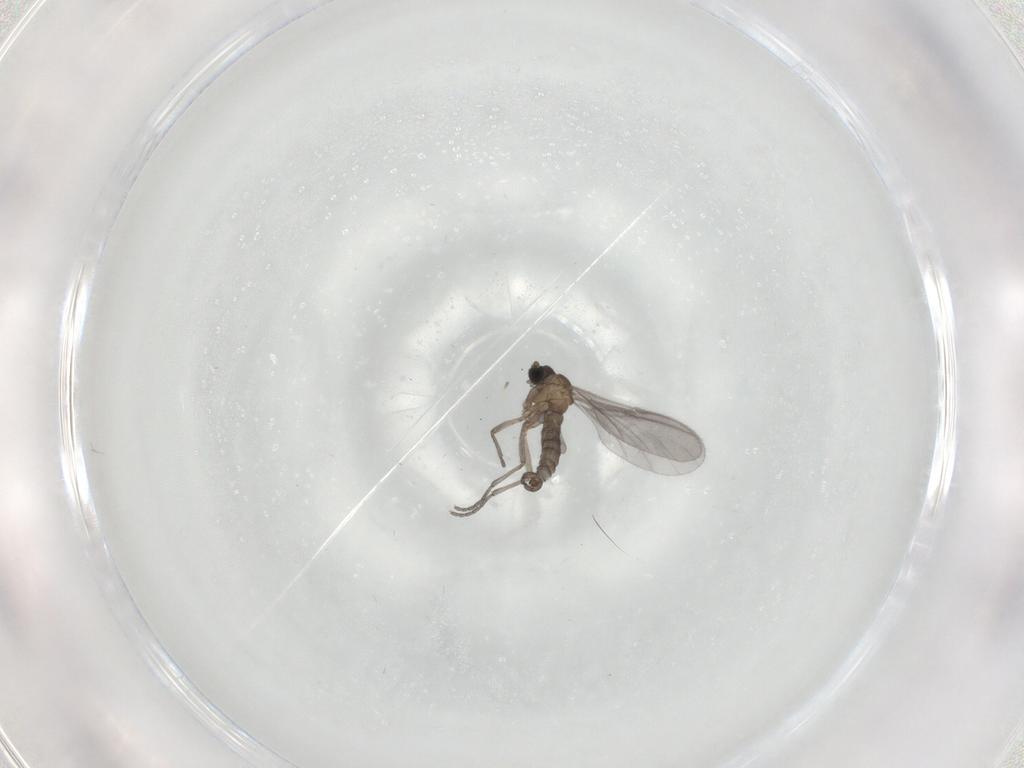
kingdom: Animalia
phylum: Arthropoda
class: Insecta
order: Diptera
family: Sciaridae
